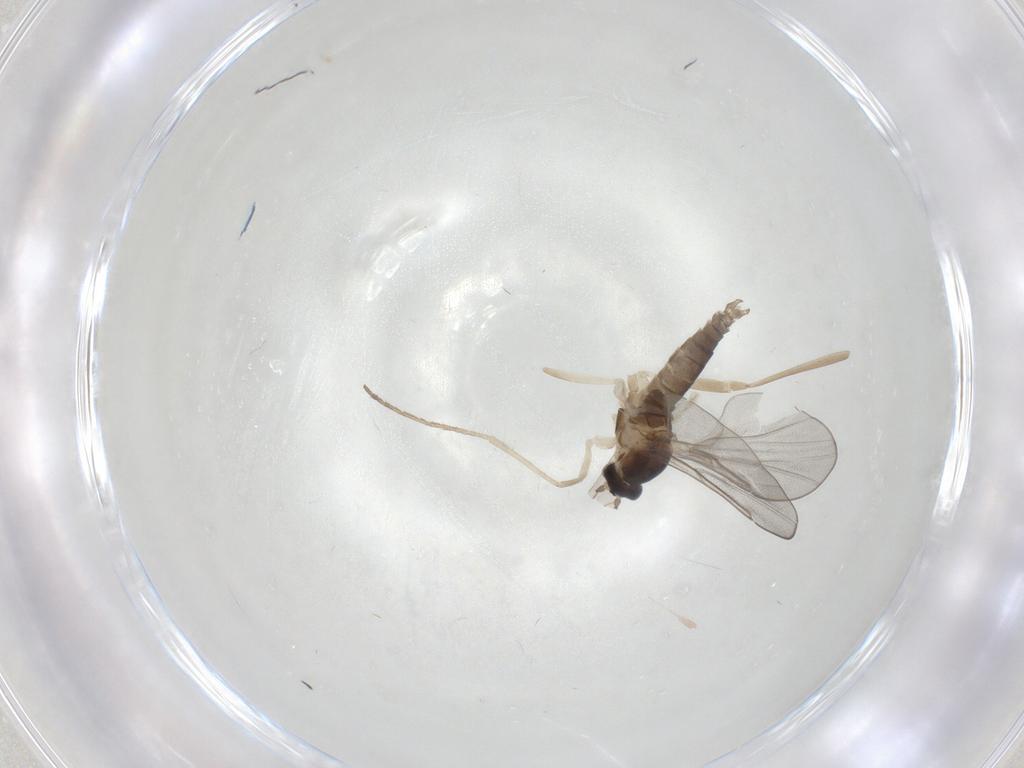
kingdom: Animalia
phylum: Arthropoda
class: Insecta
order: Diptera
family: Cecidomyiidae
